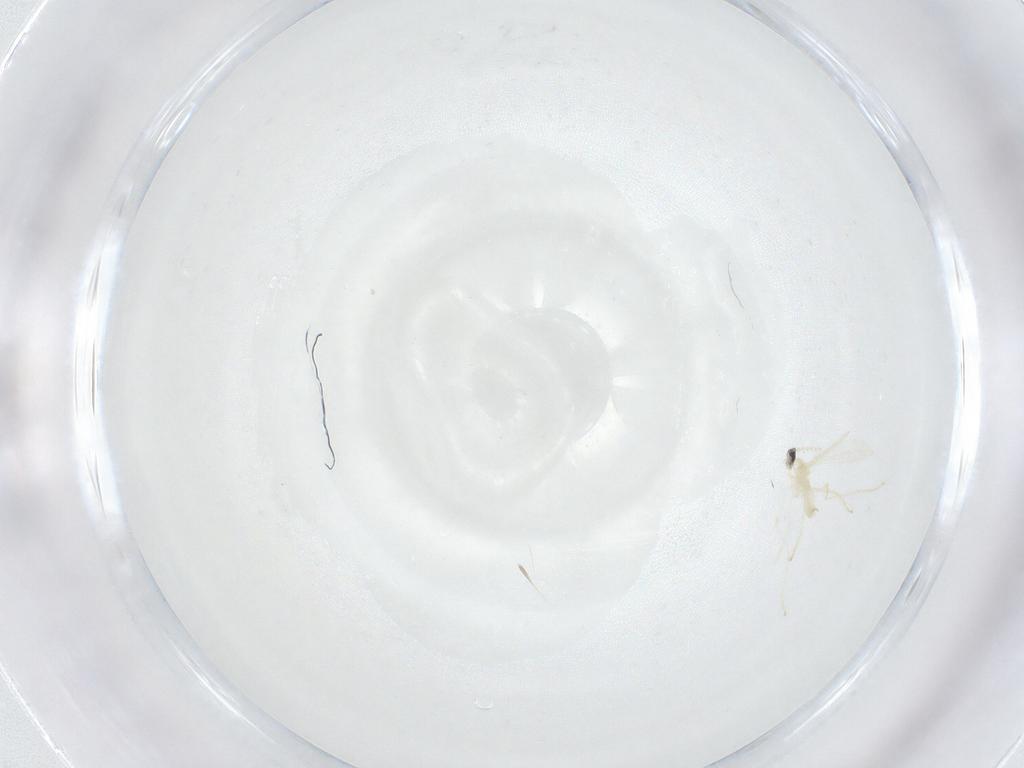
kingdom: Animalia
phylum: Arthropoda
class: Insecta
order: Diptera
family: Cecidomyiidae
